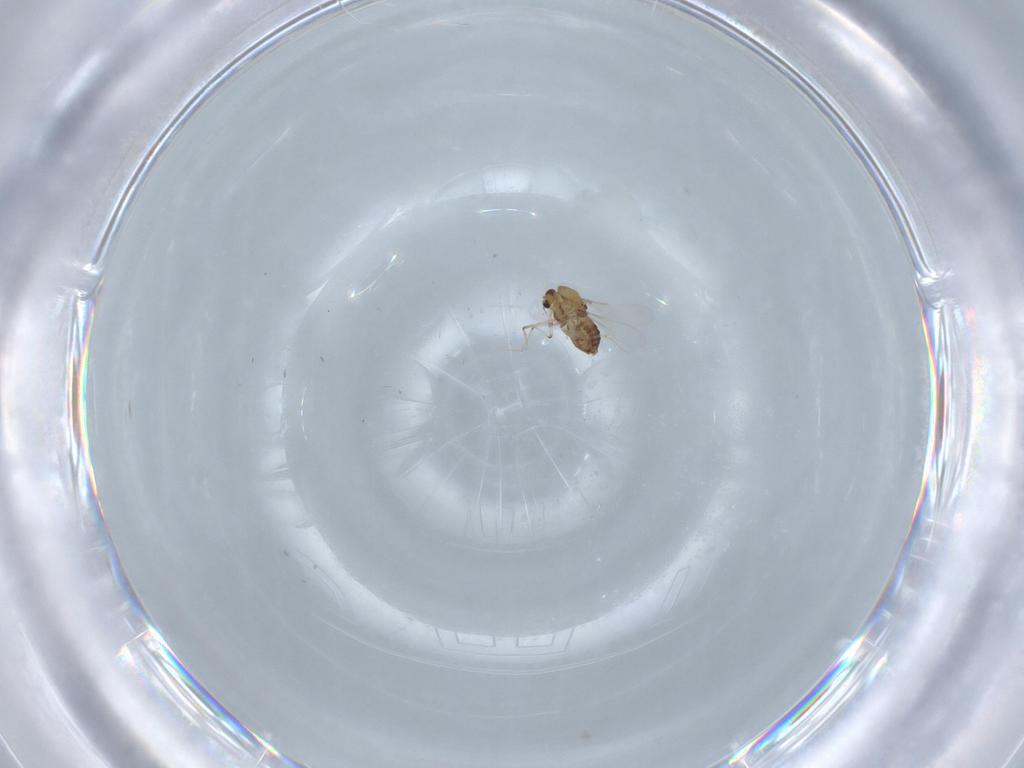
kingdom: Animalia
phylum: Arthropoda
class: Insecta
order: Diptera
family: Chironomidae
